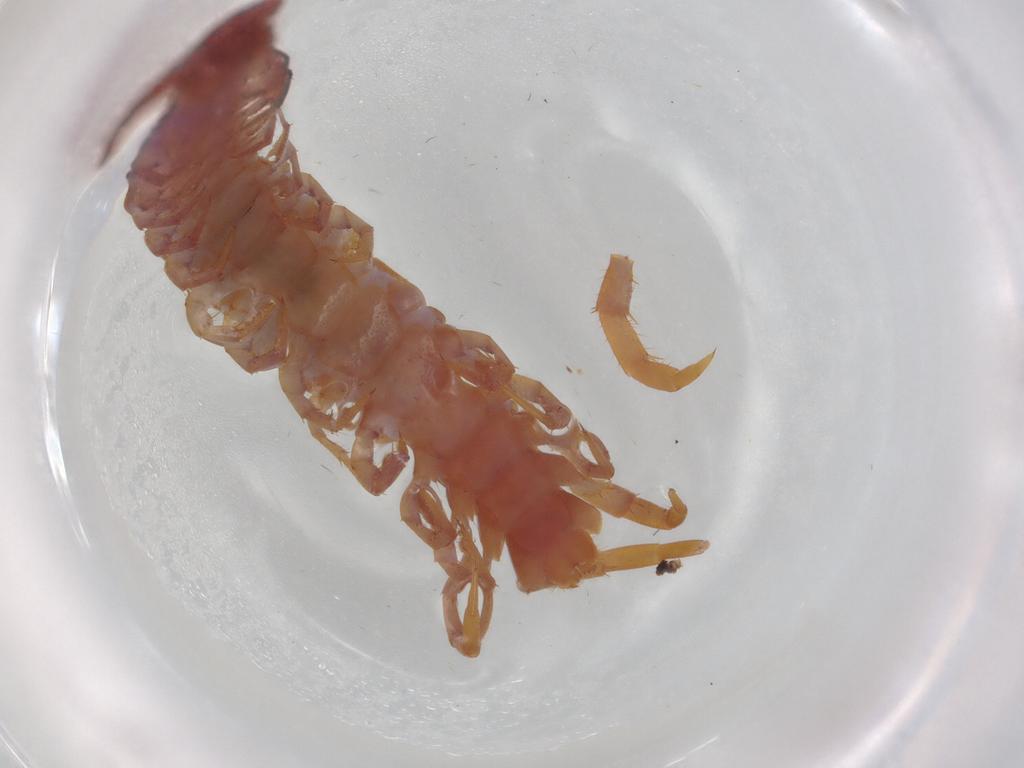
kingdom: Animalia
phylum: Arthropoda
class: Chilopoda
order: Lithobiomorpha
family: Lithobiidae
